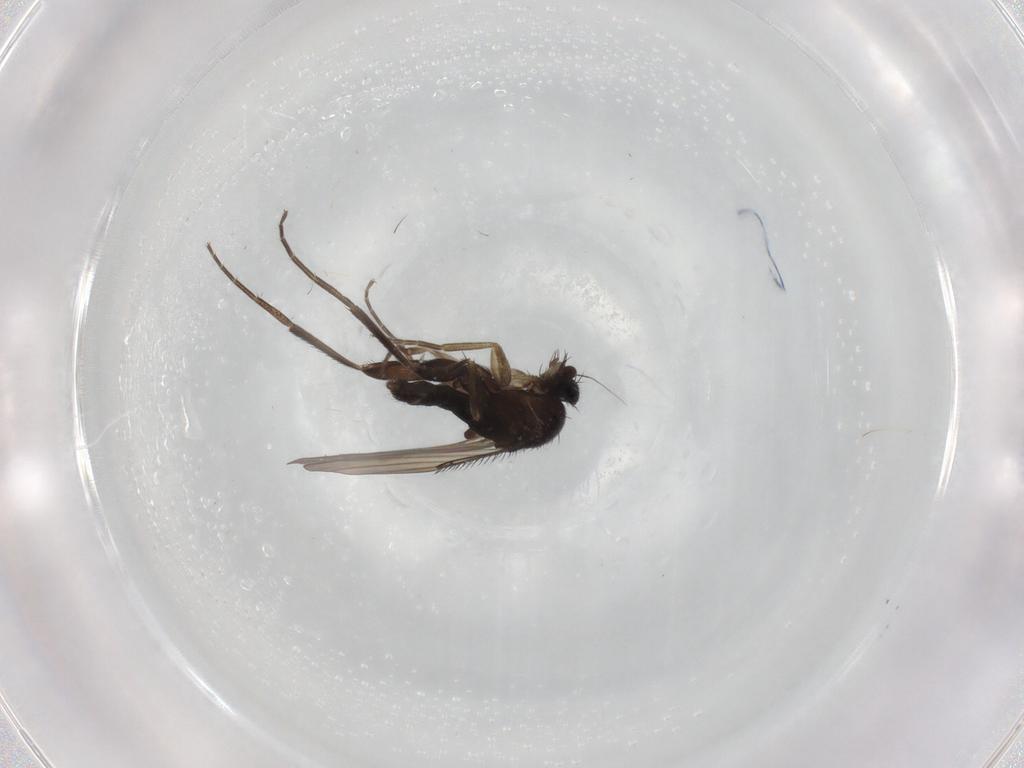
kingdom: Animalia
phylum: Arthropoda
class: Insecta
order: Diptera
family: Phoridae
